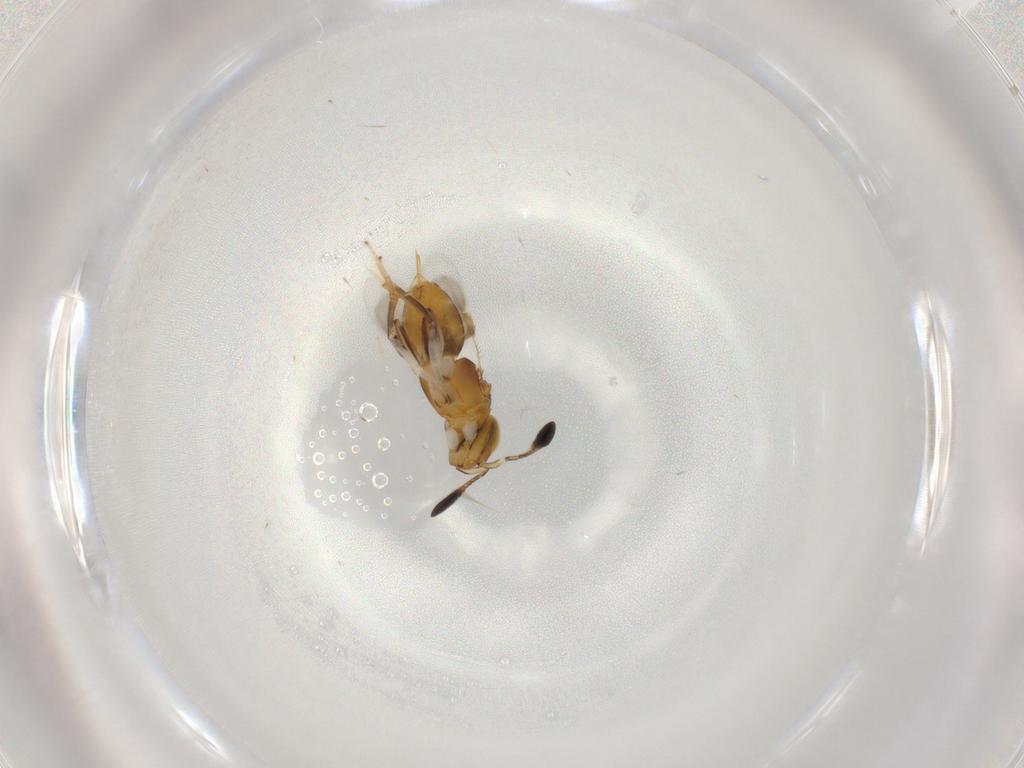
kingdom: Animalia
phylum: Arthropoda
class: Insecta
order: Hymenoptera
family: Encyrtidae
